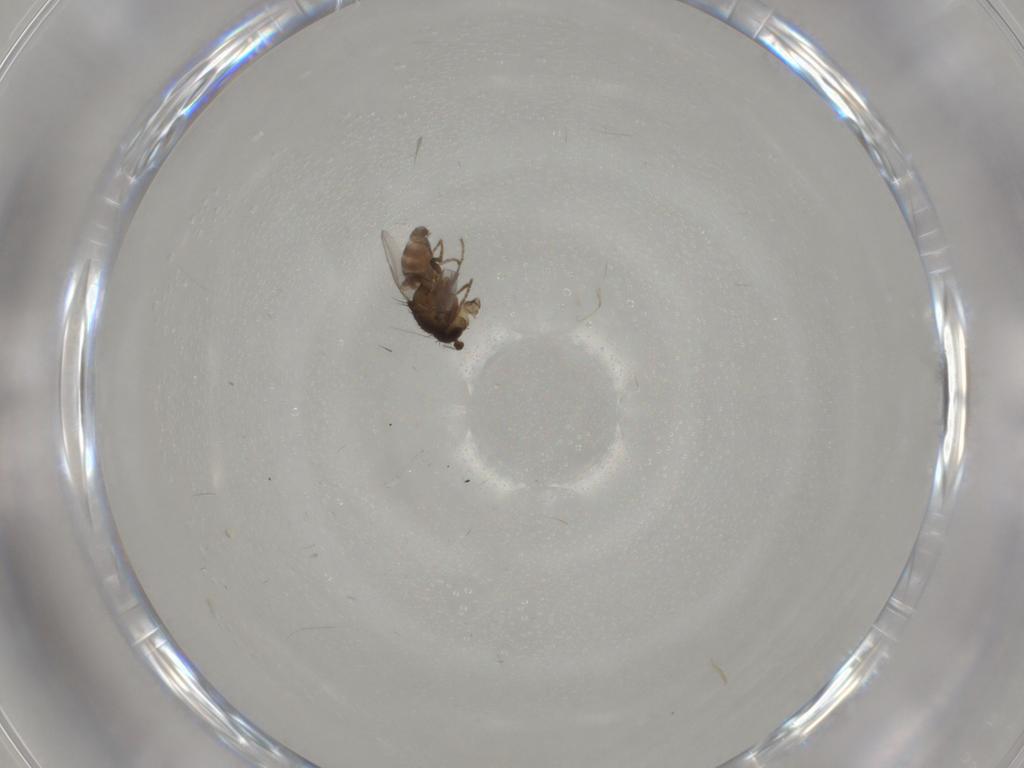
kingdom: Animalia
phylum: Arthropoda
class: Insecta
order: Diptera
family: Sphaeroceridae
